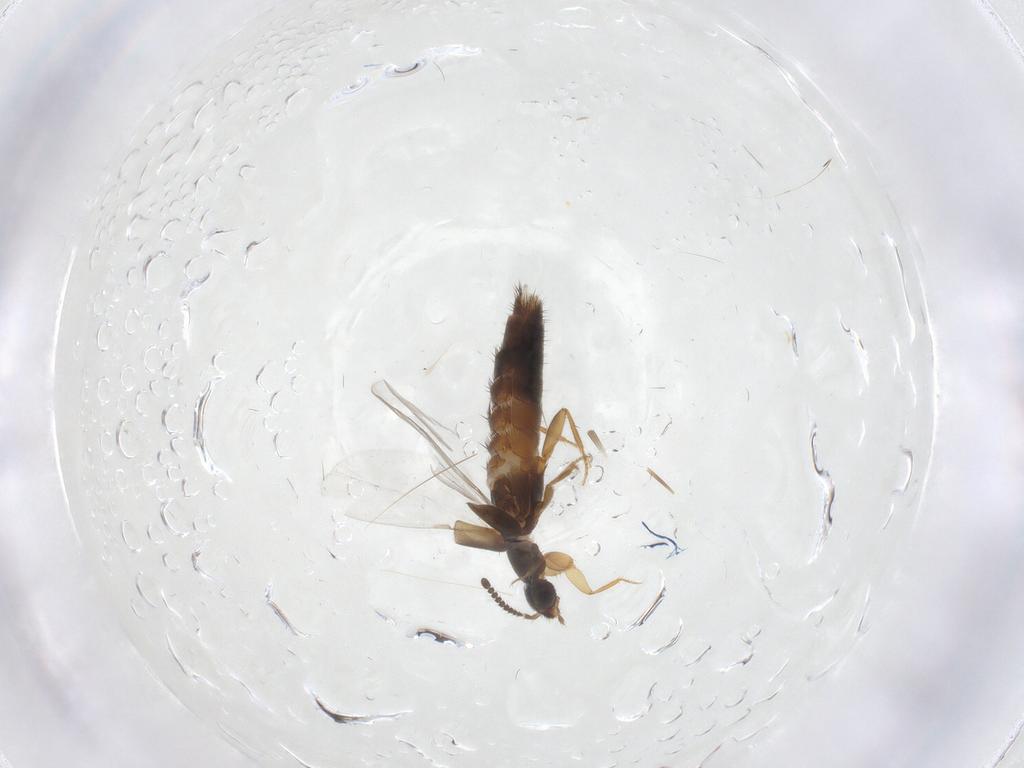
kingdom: Animalia
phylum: Arthropoda
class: Insecta
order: Coleoptera
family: Staphylinidae
